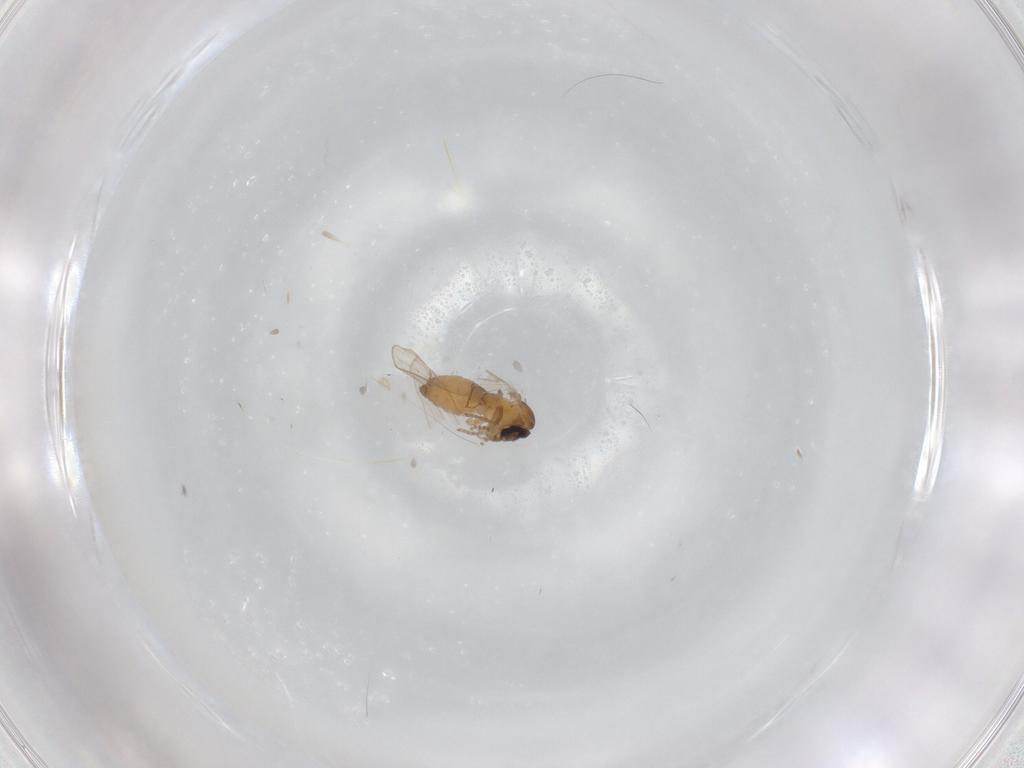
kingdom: Animalia
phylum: Arthropoda
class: Insecta
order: Diptera
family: Psychodidae
